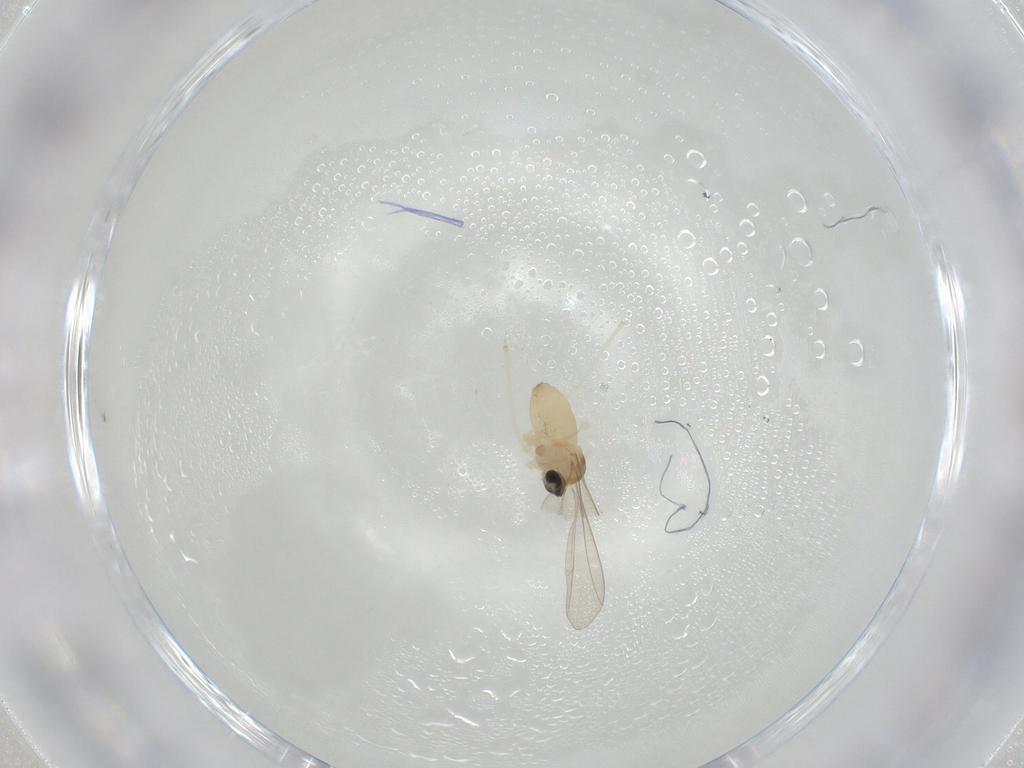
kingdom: Animalia
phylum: Arthropoda
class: Insecta
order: Diptera
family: Cecidomyiidae
